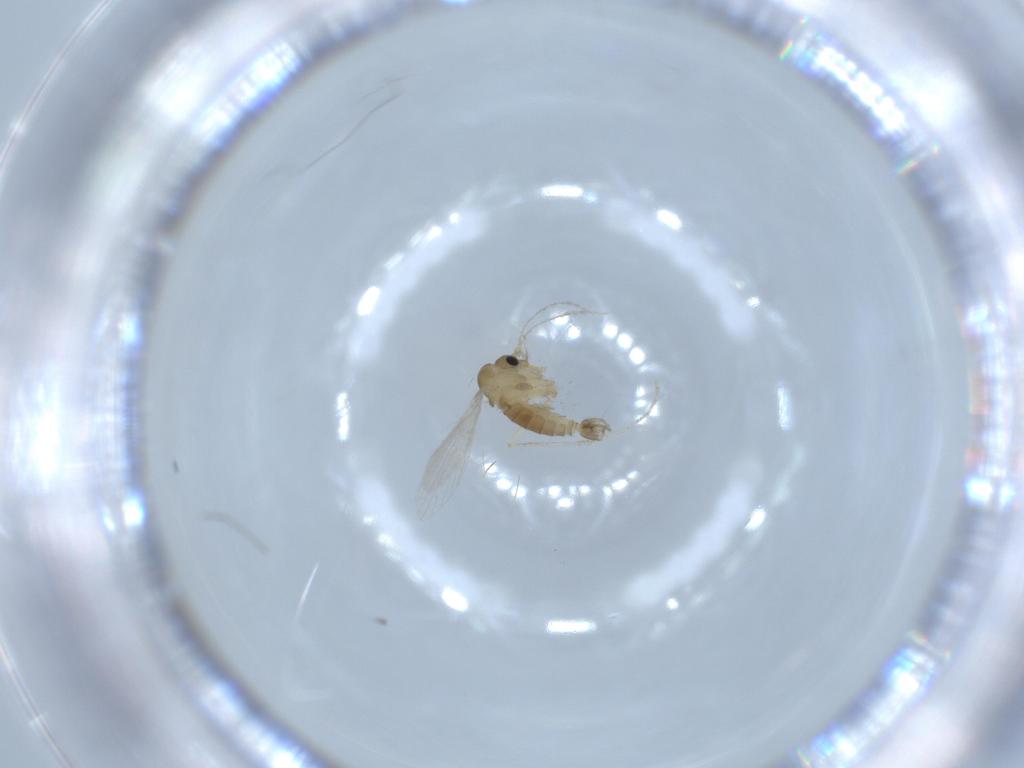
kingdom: Animalia
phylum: Arthropoda
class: Insecta
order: Diptera
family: Psychodidae
